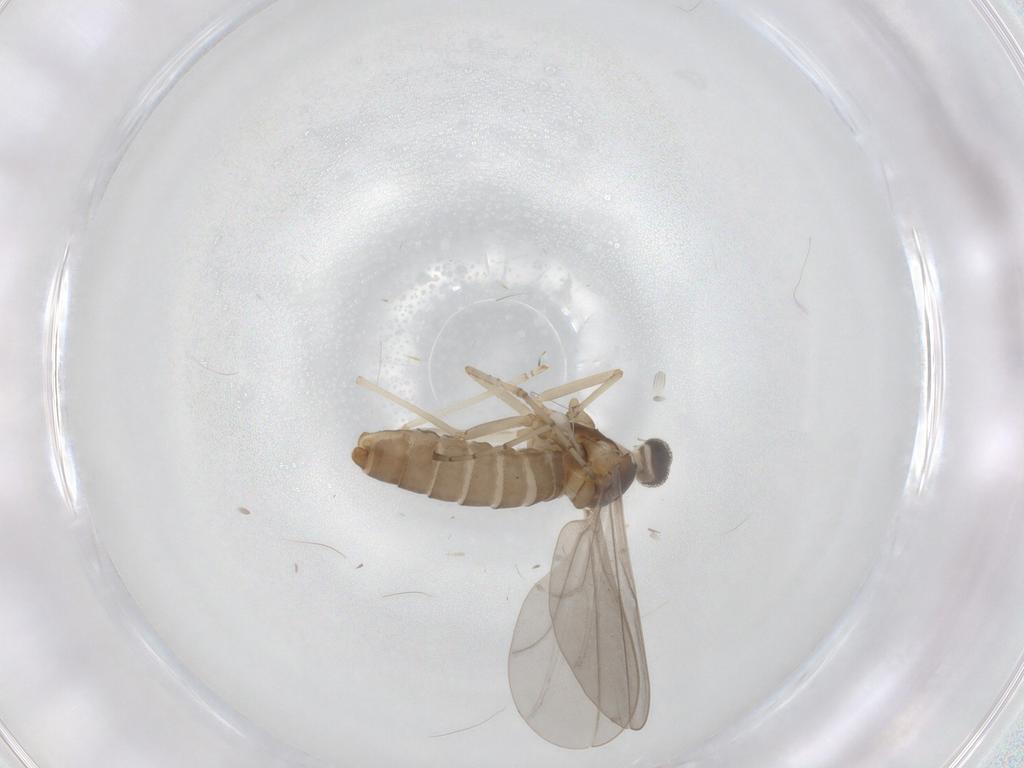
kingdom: Animalia
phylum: Arthropoda
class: Insecta
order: Diptera
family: Cecidomyiidae
